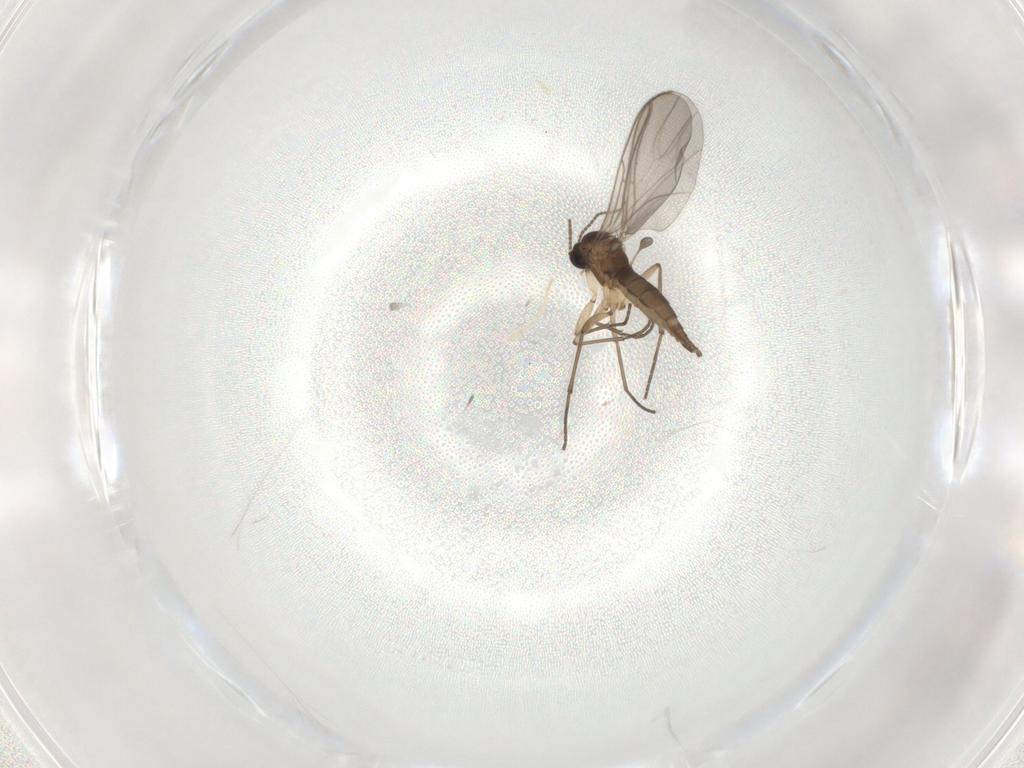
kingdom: Animalia
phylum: Arthropoda
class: Insecta
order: Diptera
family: Sciaridae
